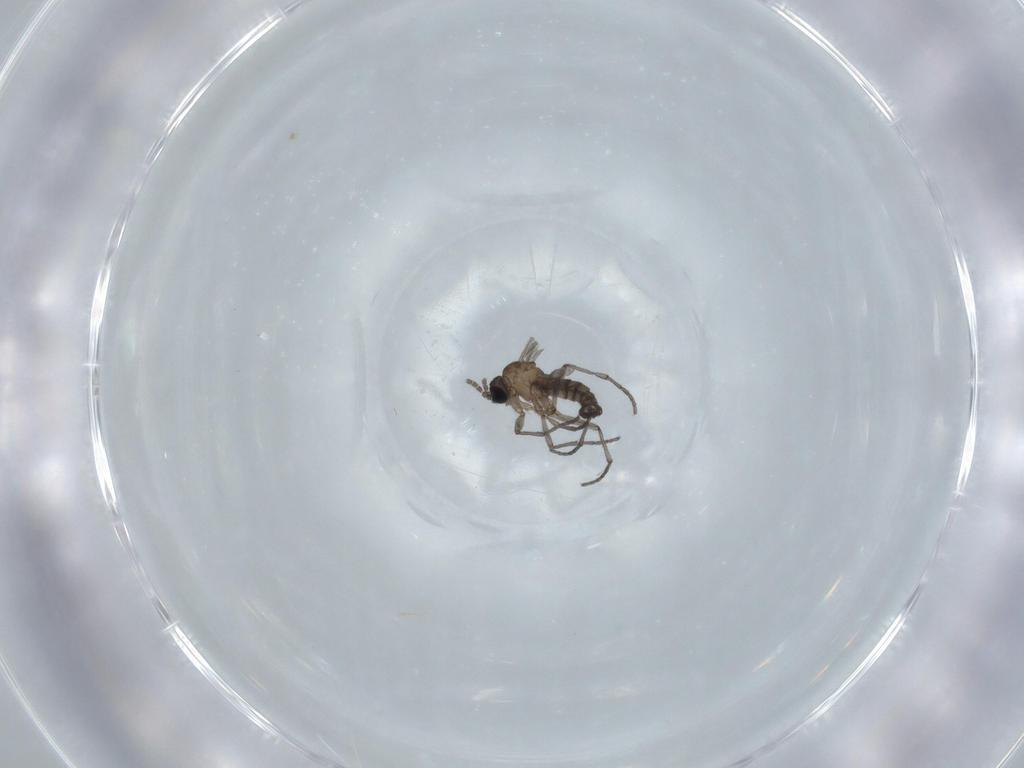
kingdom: Animalia
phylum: Arthropoda
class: Insecta
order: Diptera
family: Sciaridae
